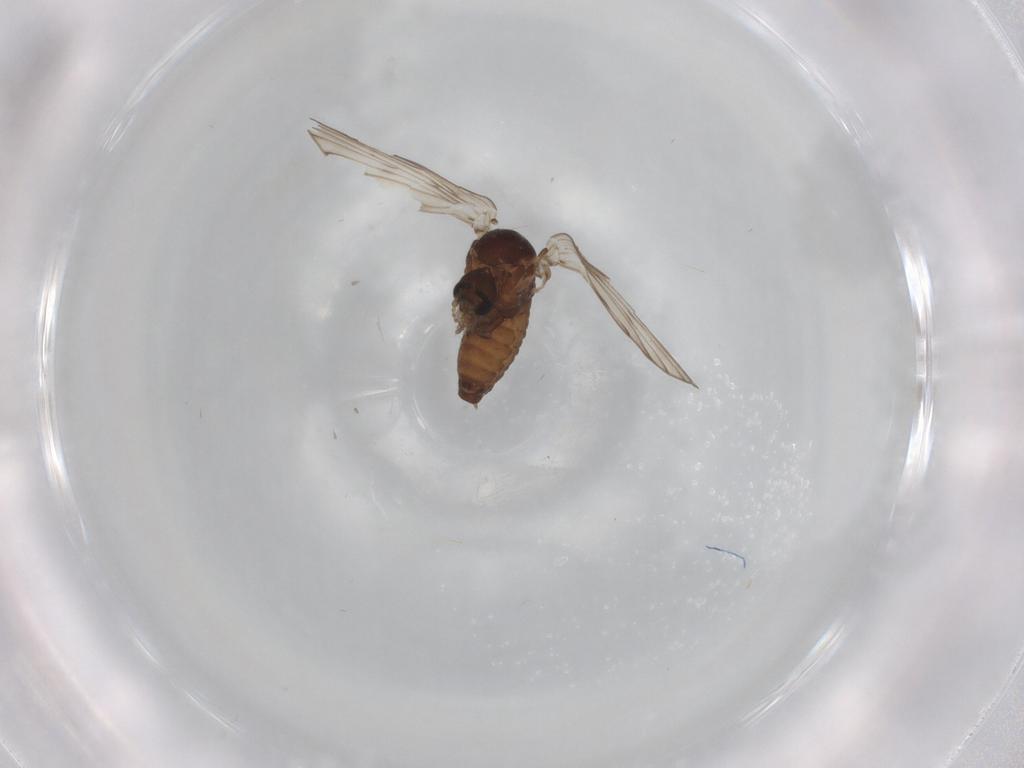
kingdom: Animalia
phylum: Arthropoda
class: Insecta
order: Diptera
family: Psychodidae
